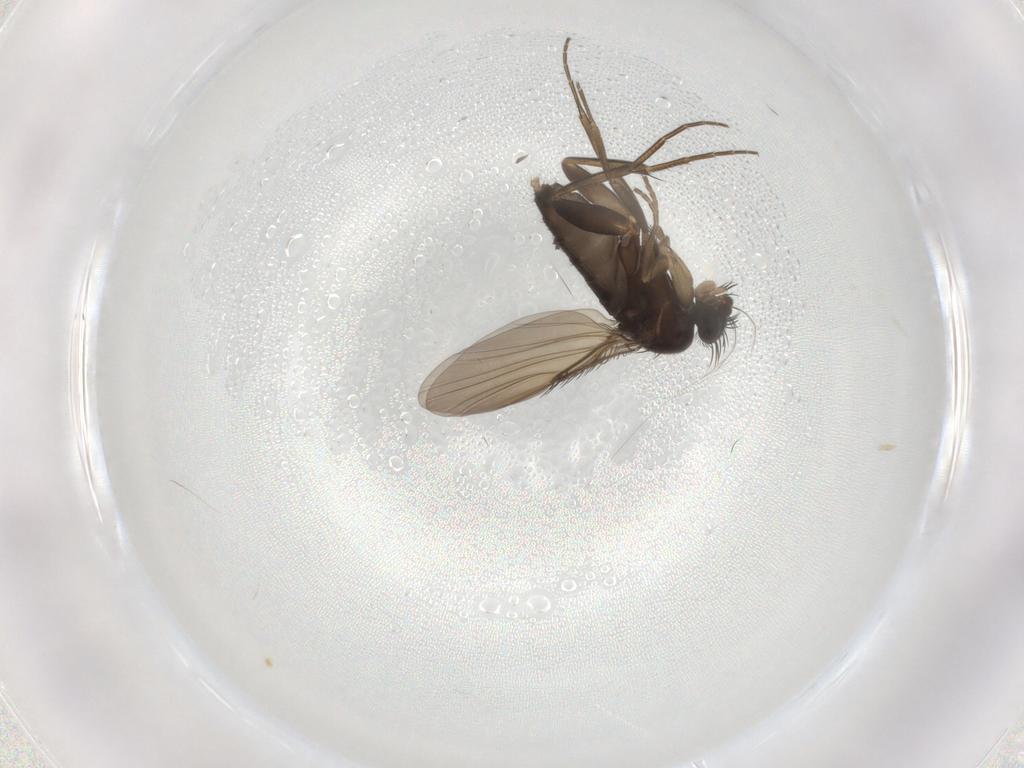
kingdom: Animalia
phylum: Arthropoda
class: Insecta
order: Diptera
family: Phoridae
